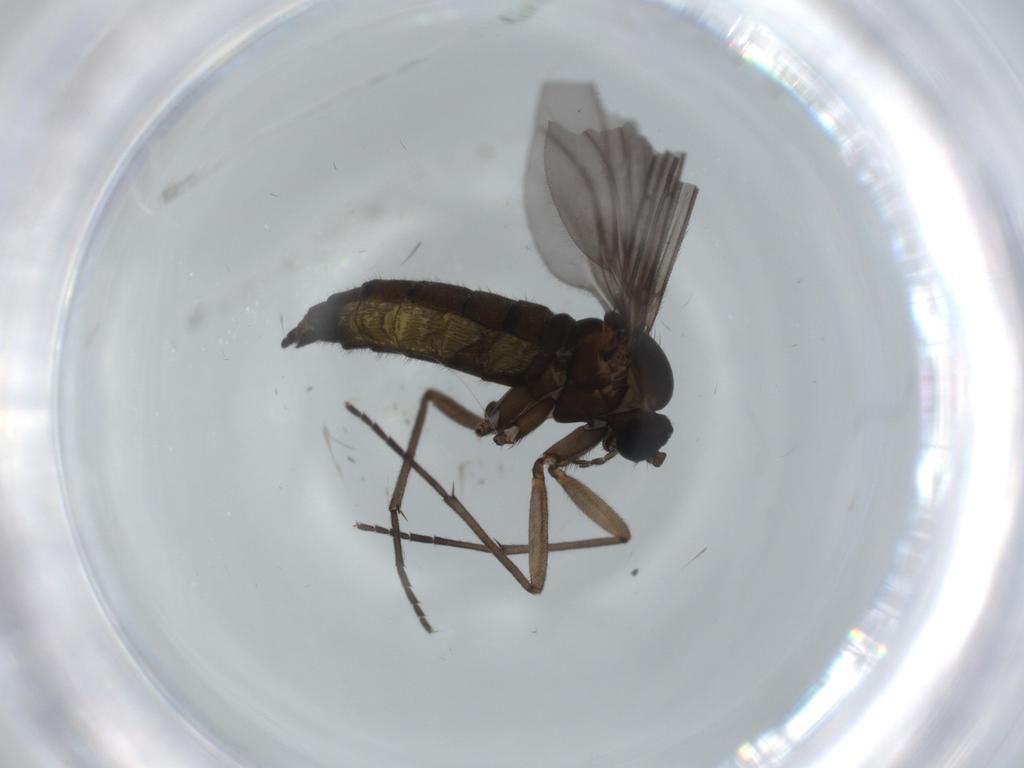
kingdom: Animalia
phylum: Arthropoda
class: Insecta
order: Diptera
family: Sciaridae
